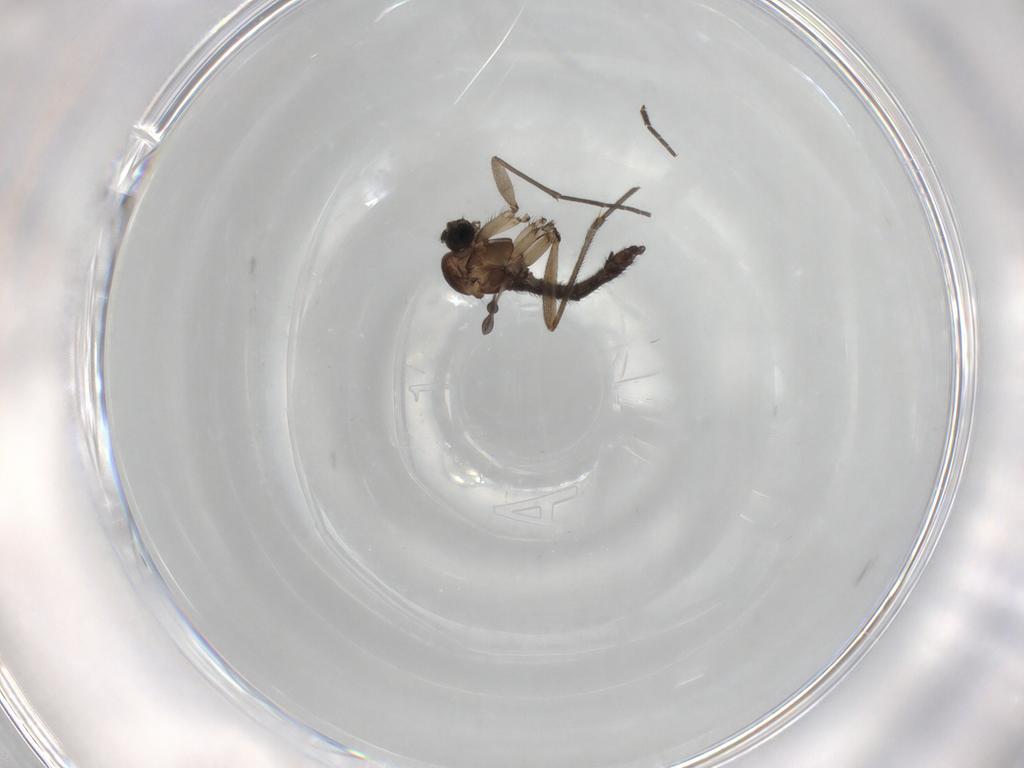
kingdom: Animalia
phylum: Arthropoda
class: Insecta
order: Diptera
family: Sciaridae
